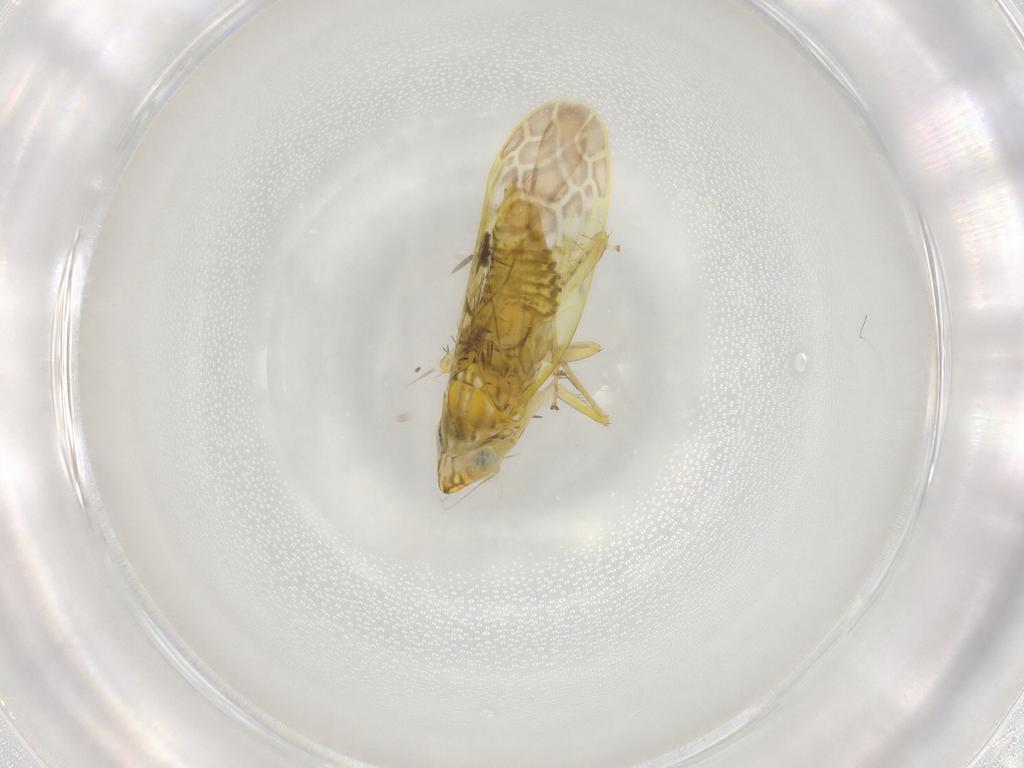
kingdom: Animalia
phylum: Arthropoda
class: Insecta
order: Hemiptera
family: Cicadellidae
